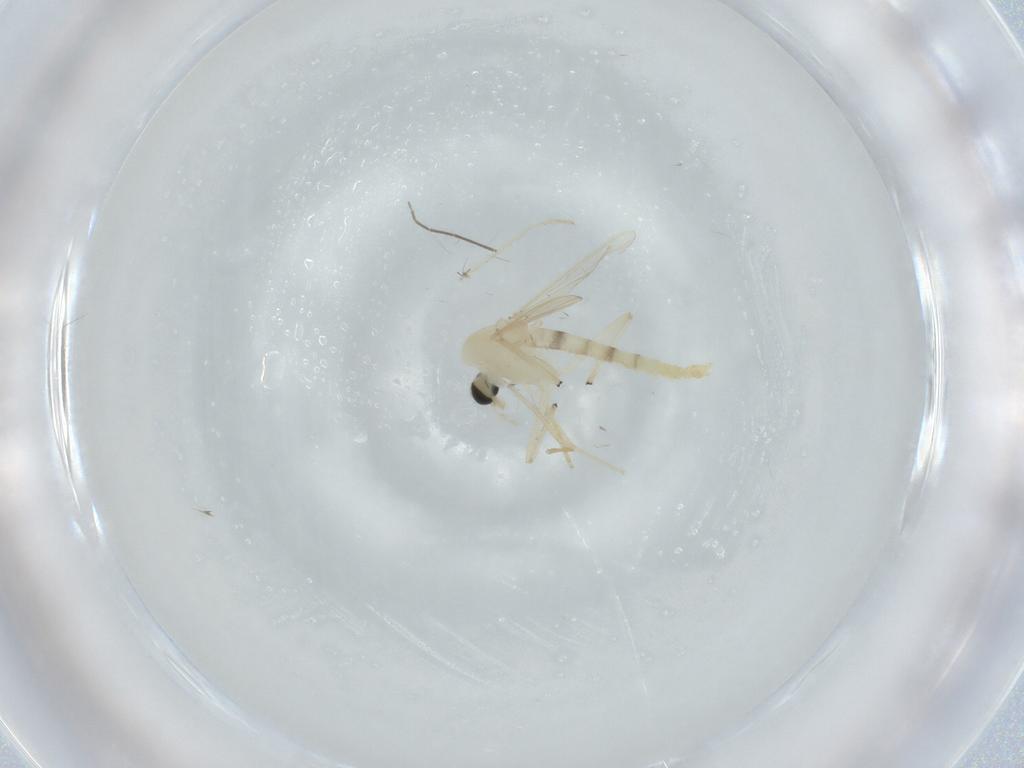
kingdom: Animalia
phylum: Arthropoda
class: Insecta
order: Diptera
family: Chironomidae
